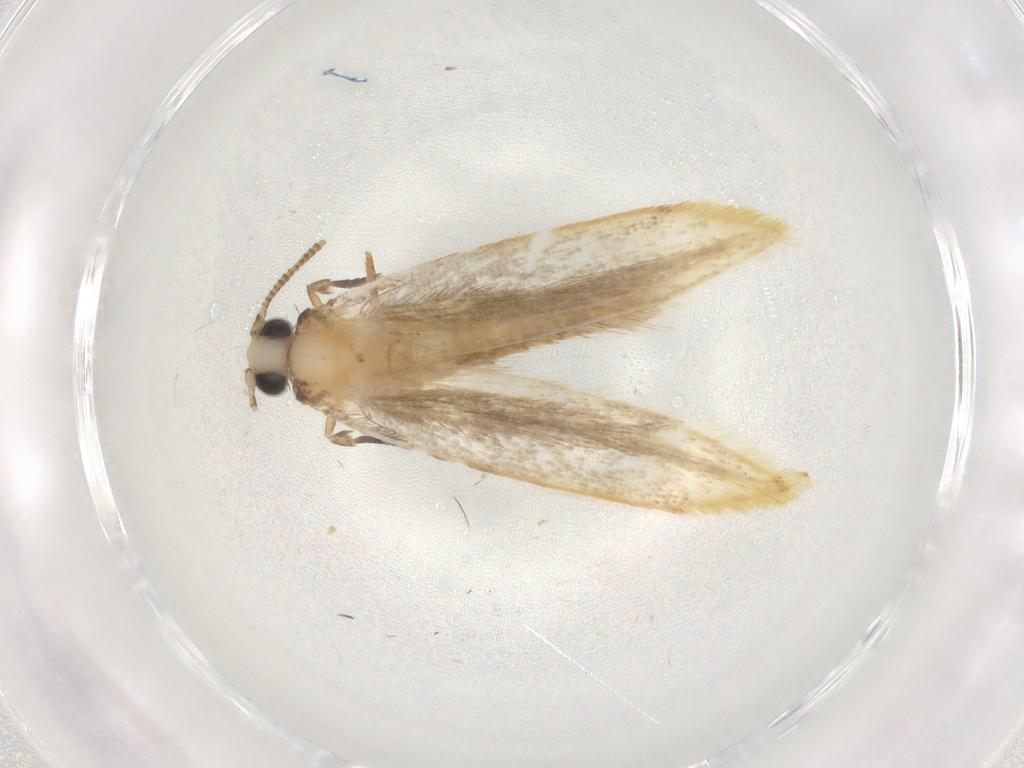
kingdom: Animalia
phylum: Arthropoda
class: Insecta
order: Lepidoptera
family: Tineidae
